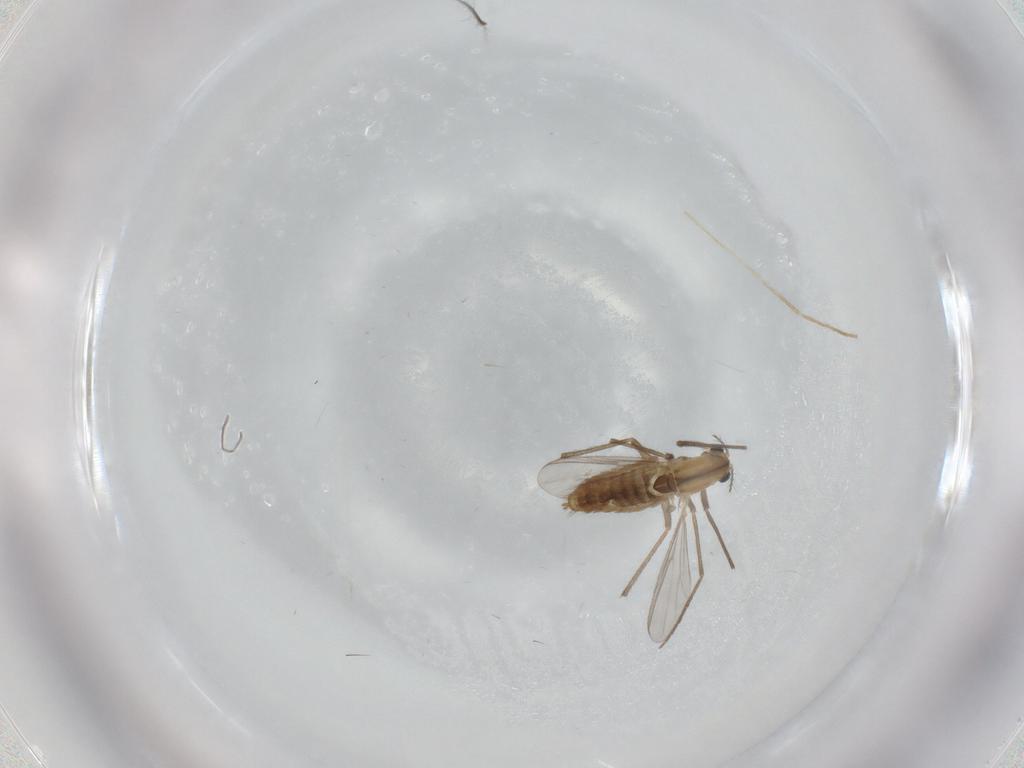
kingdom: Animalia
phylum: Arthropoda
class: Insecta
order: Diptera
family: Chironomidae
